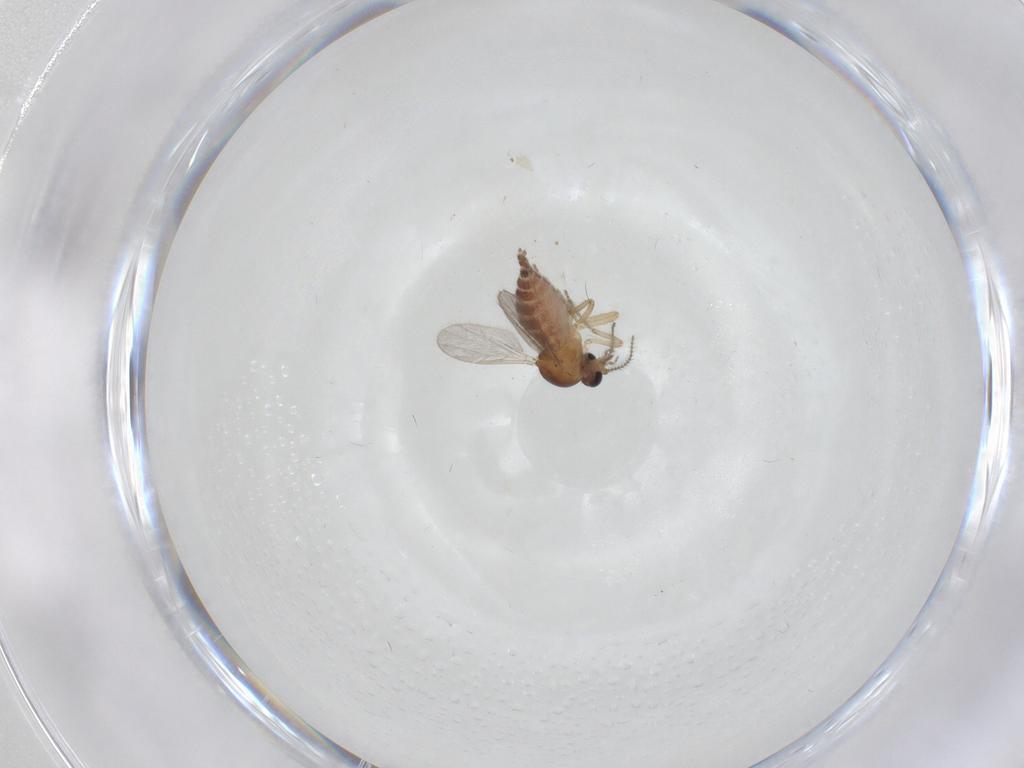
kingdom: Animalia
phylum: Arthropoda
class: Insecta
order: Diptera
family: Ceratopogonidae
